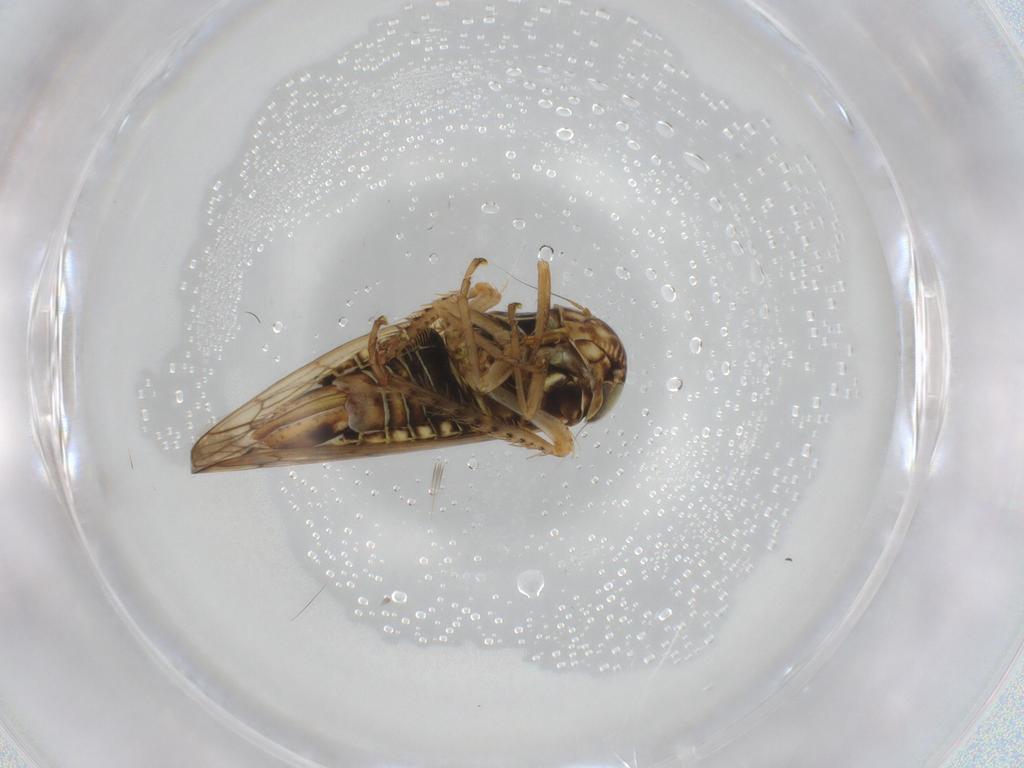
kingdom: Animalia
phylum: Arthropoda
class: Insecta
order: Hemiptera
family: Cicadellidae
